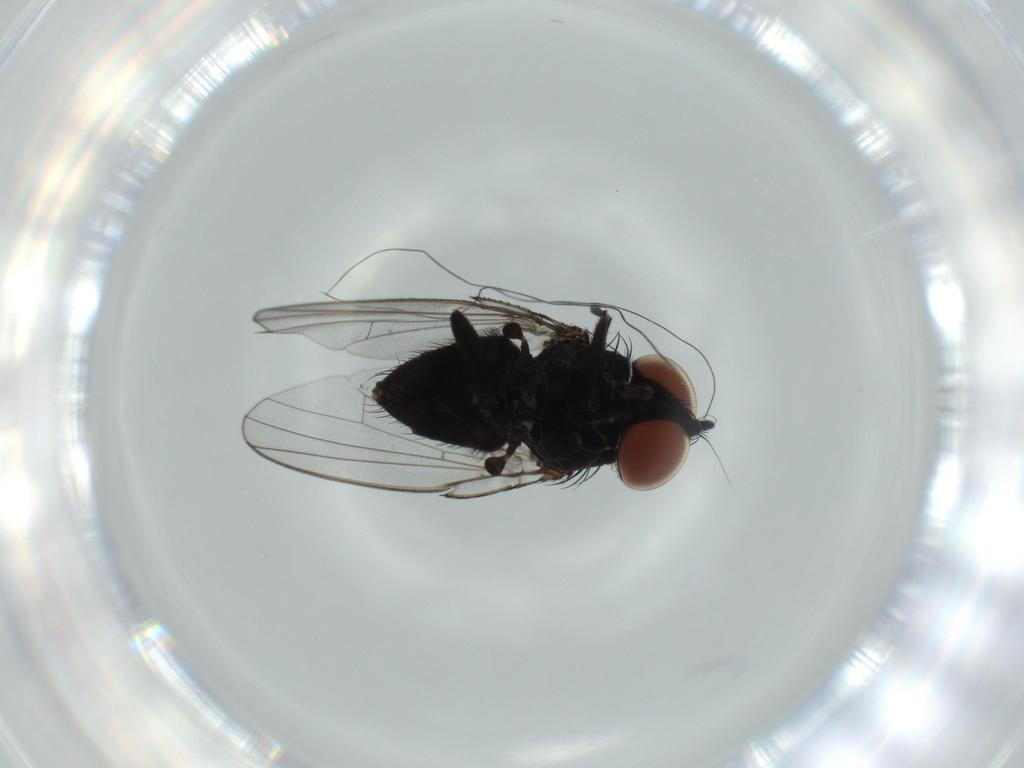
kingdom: Animalia
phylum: Arthropoda
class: Insecta
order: Diptera
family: Milichiidae
